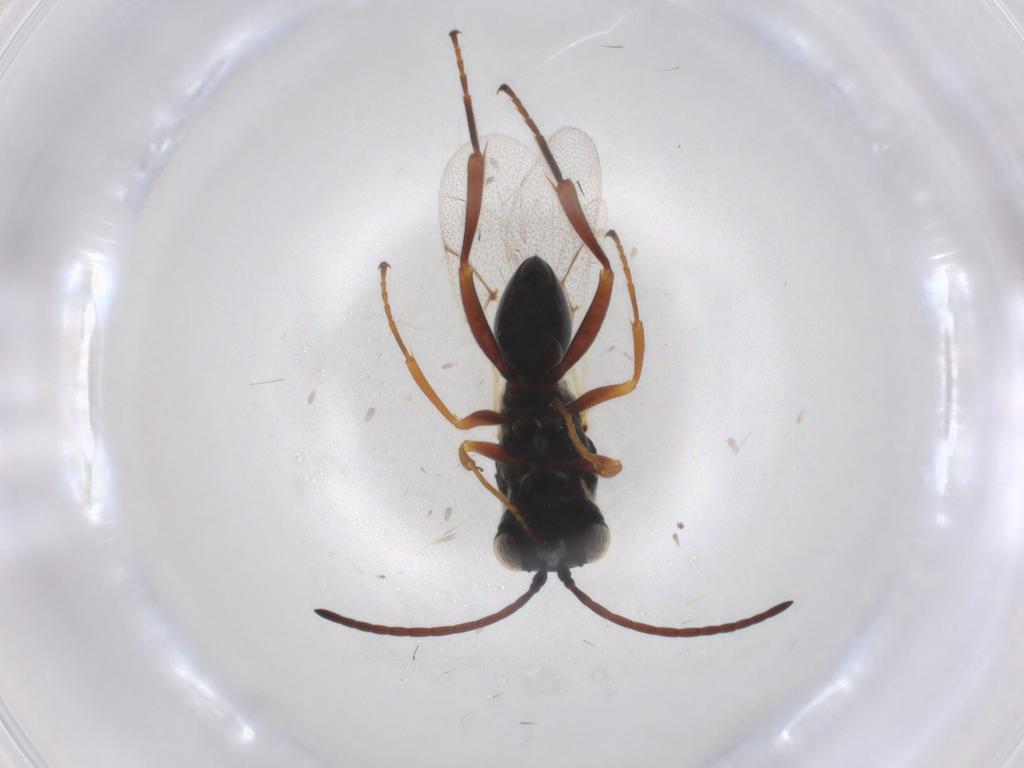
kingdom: Animalia
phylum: Arthropoda
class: Insecta
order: Hymenoptera
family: Figitidae
